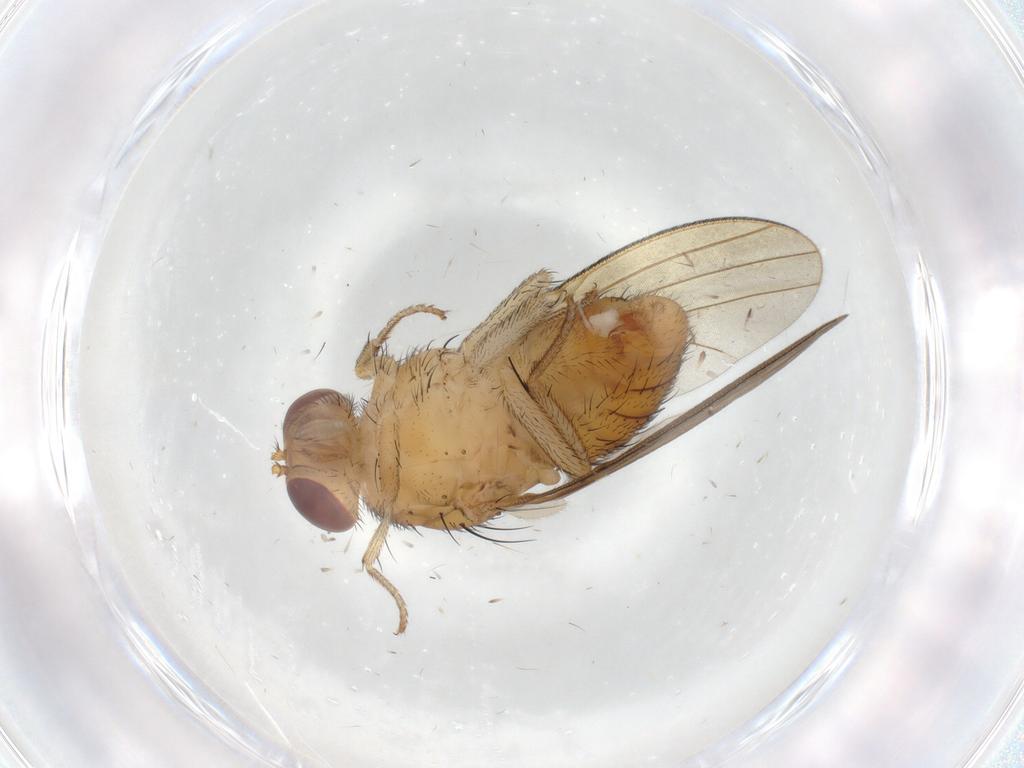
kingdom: Animalia
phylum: Arthropoda
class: Insecta
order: Diptera
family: Lauxaniidae
